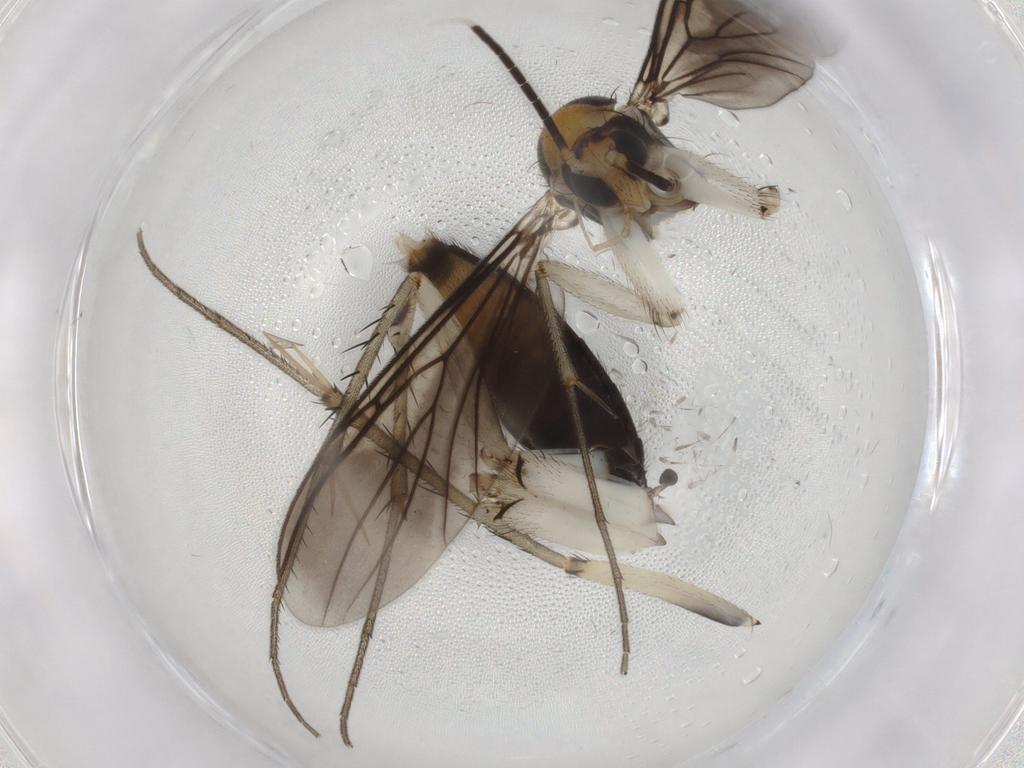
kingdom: Animalia
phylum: Arthropoda
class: Insecta
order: Diptera
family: Mycetophilidae
